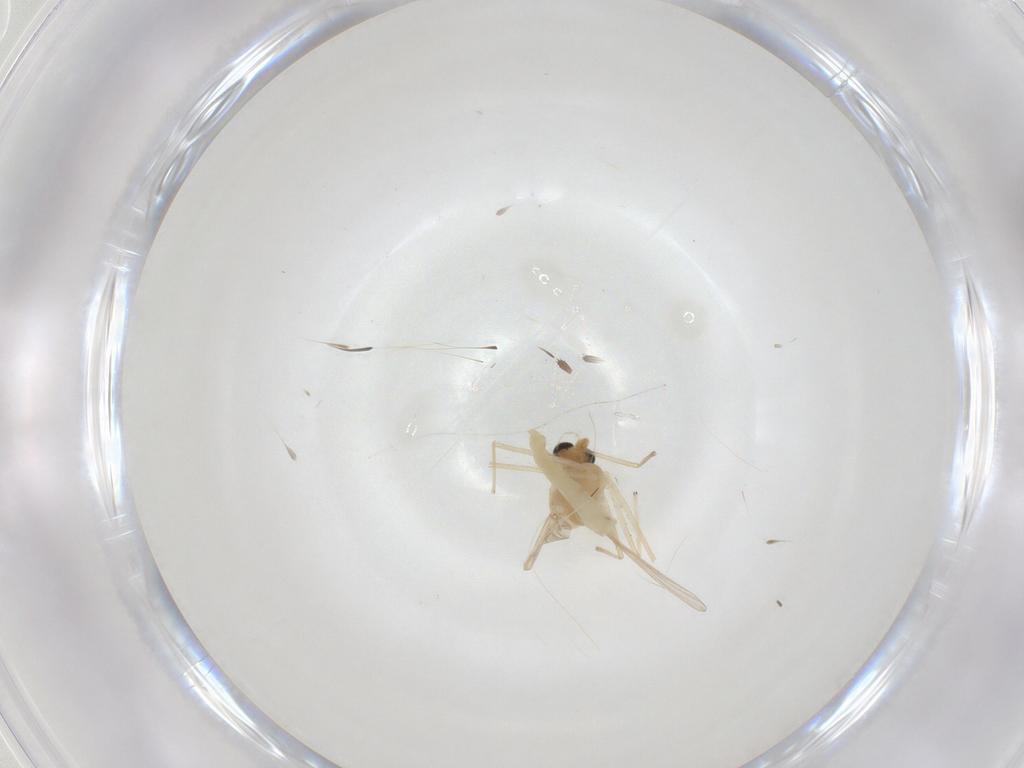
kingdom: Animalia
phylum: Arthropoda
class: Insecta
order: Diptera
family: Chironomidae
